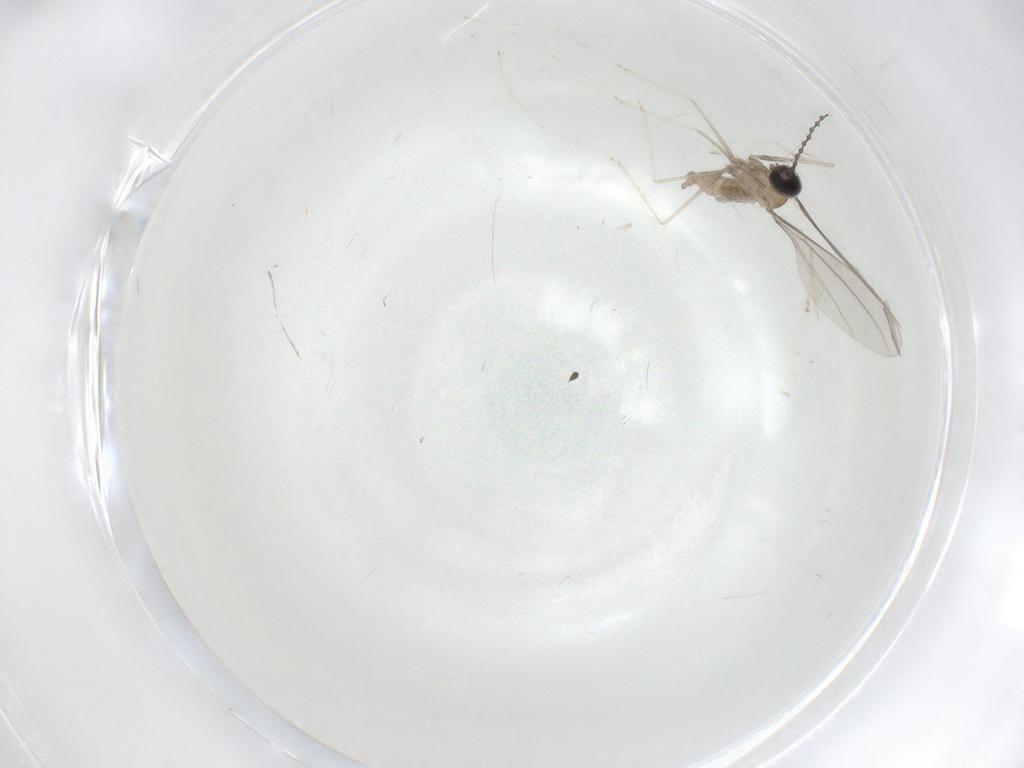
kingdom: Animalia
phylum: Arthropoda
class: Insecta
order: Diptera
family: Cecidomyiidae
